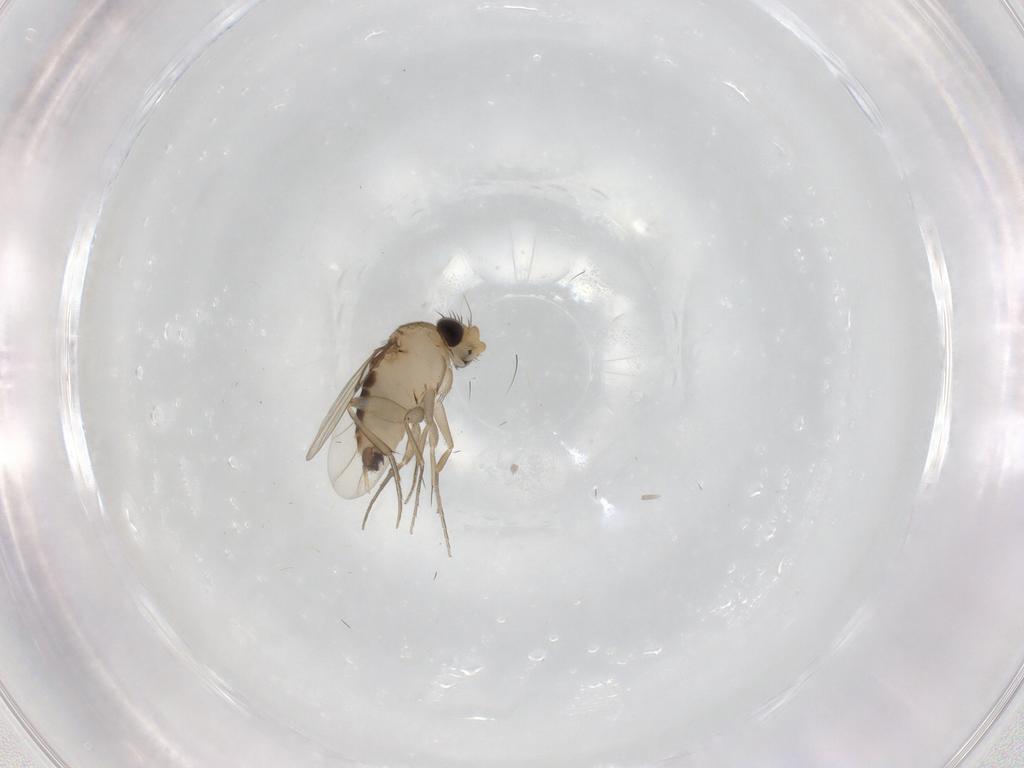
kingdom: Animalia
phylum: Arthropoda
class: Insecta
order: Diptera
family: Phoridae
